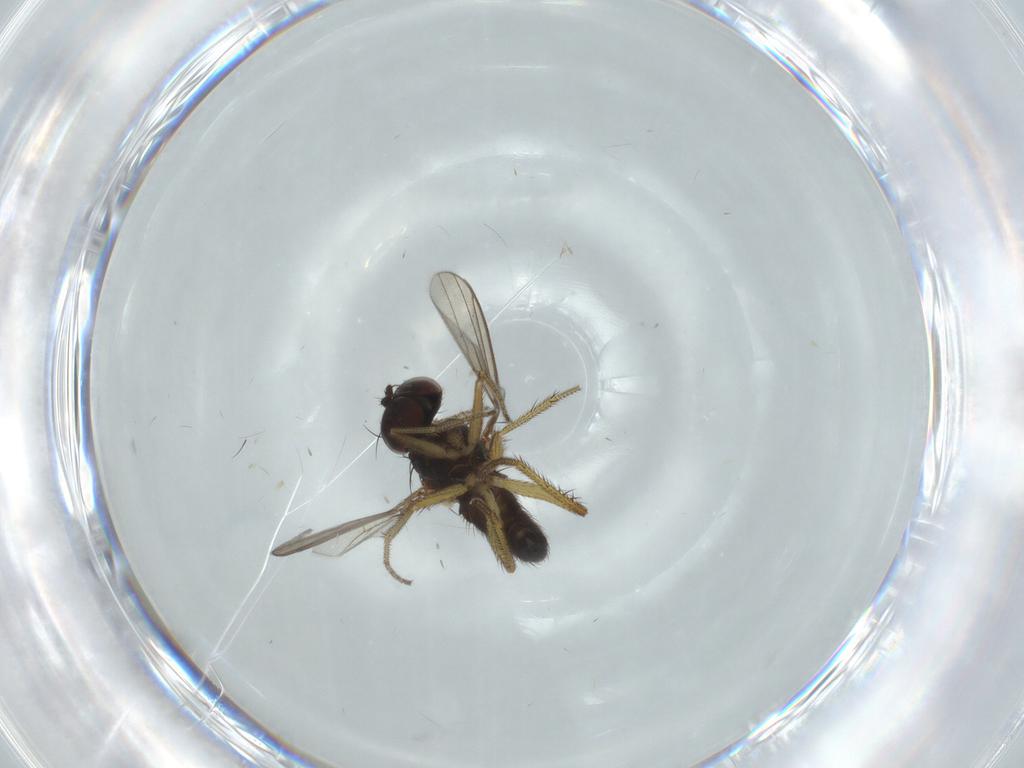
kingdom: Animalia
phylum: Arthropoda
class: Insecta
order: Diptera
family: Dolichopodidae
